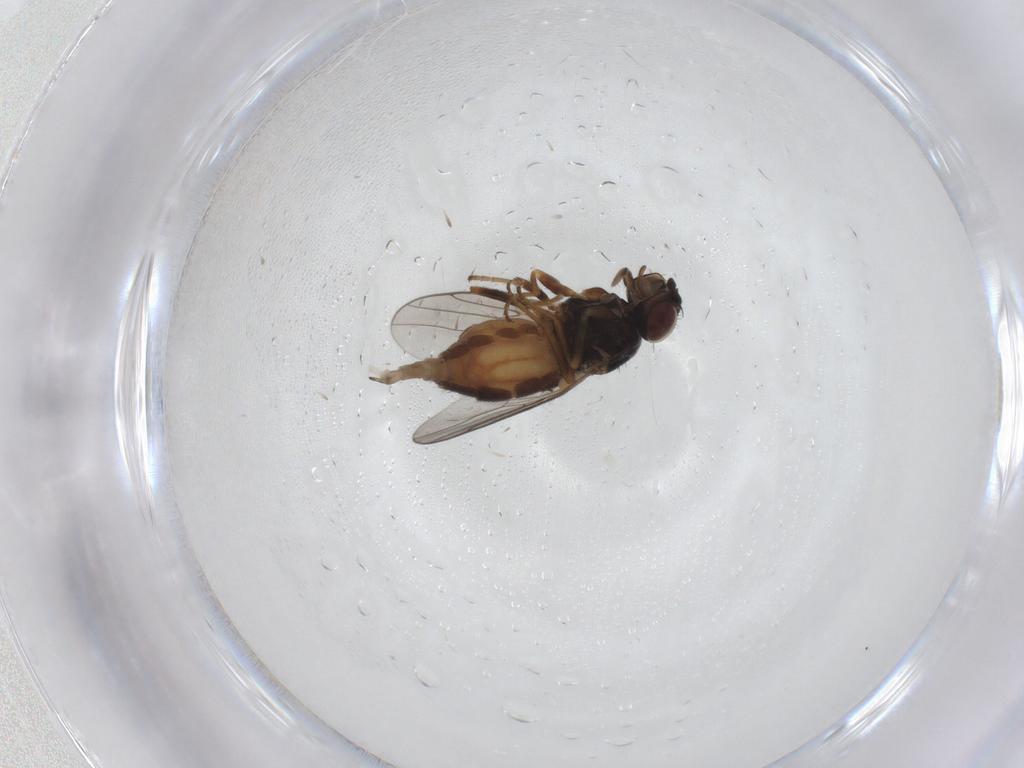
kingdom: Animalia
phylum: Arthropoda
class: Insecta
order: Diptera
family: Chloropidae
